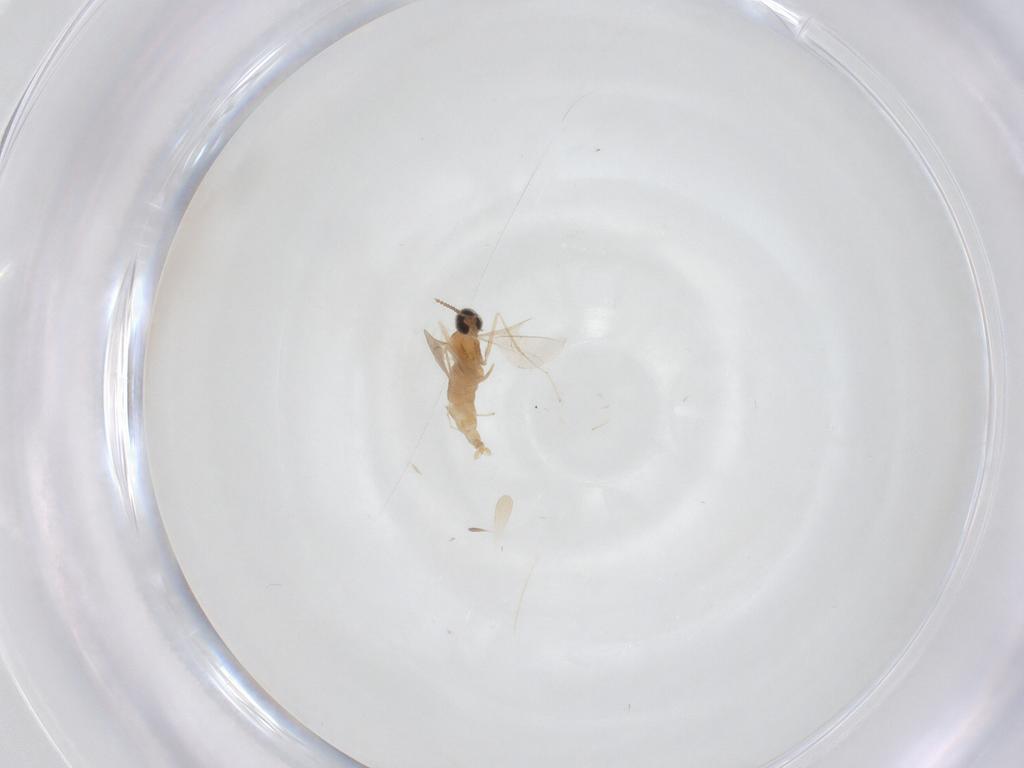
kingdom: Animalia
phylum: Arthropoda
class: Insecta
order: Diptera
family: Cecidomyiidae
